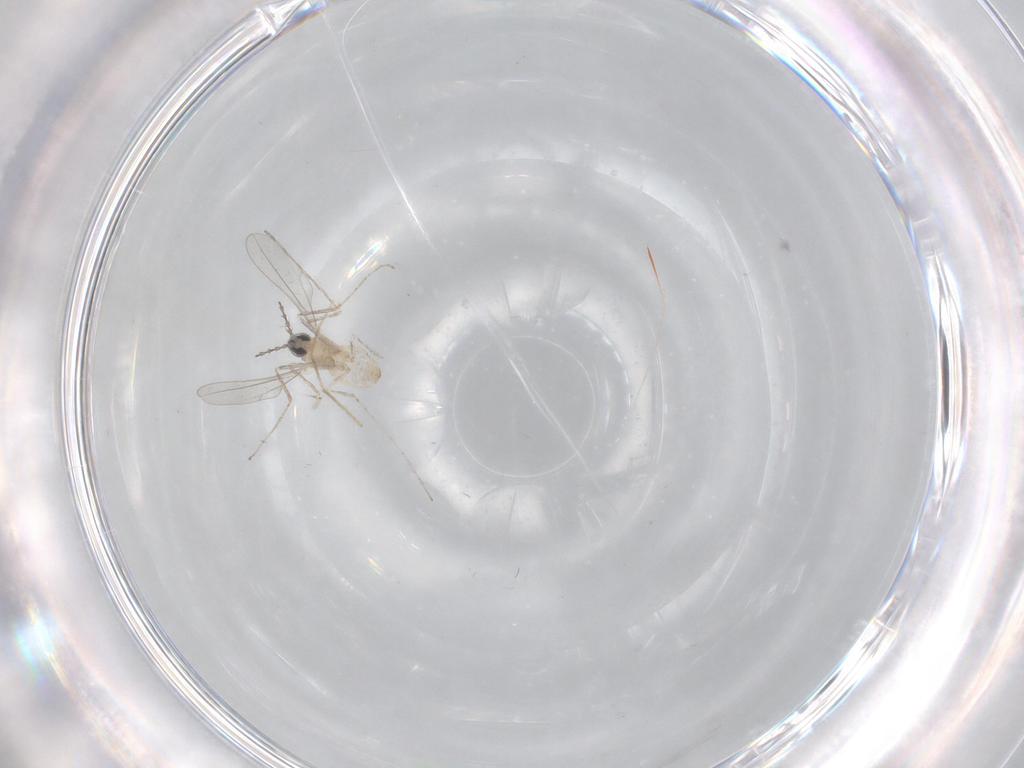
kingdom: Animalia
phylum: Arthropoda
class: Insecta
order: Diptera
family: Chironomidae
